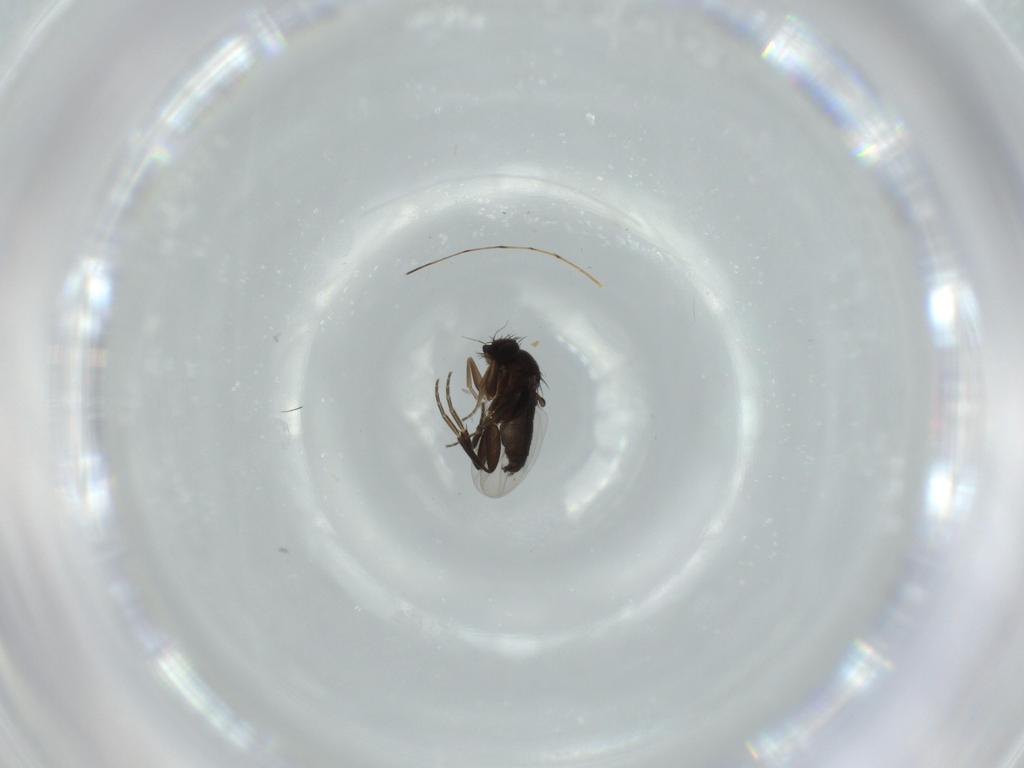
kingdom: Animalia
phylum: Arthropoda
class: Insecta
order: Diptera
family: Phoridae
